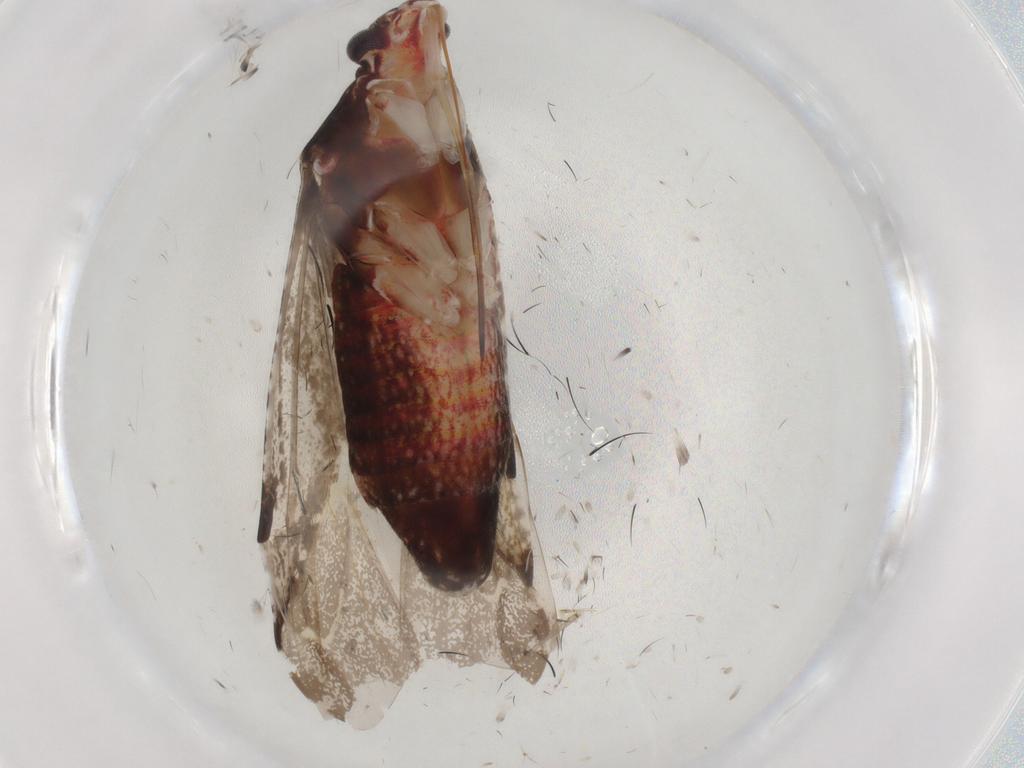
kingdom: Animalia
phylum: Arthropoda
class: Insecta
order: Hemiptera
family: Miridae
